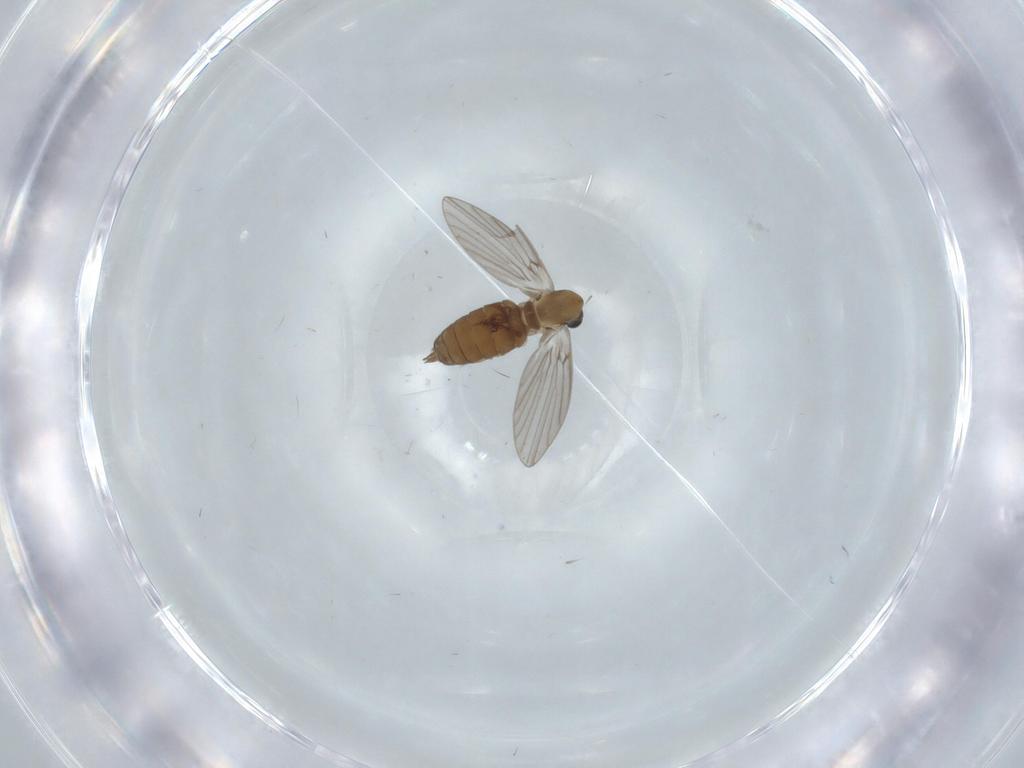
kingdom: Animalia
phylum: Arthropoda
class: Insecta
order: Diptera
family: Psychodidae
